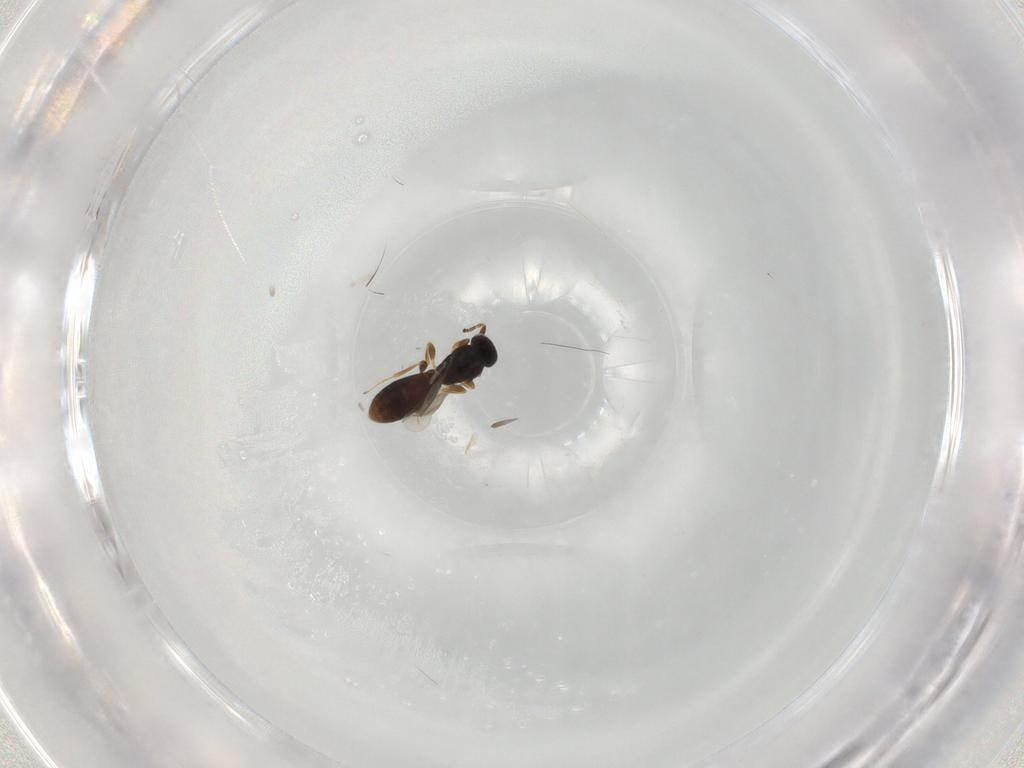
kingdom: Animalia
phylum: Arthropoda
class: Insecta
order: Hymenoptera
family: Platygastridae
